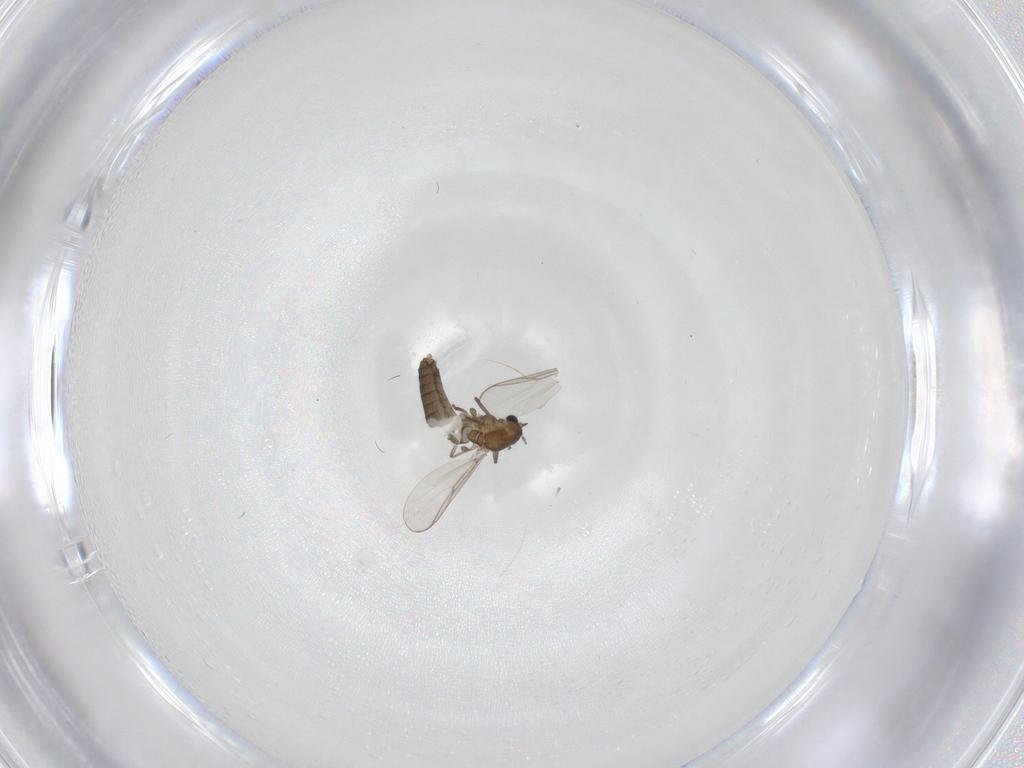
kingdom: Animalia
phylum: Arthropoda
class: Insecta
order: Diptera
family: Chironomidae
